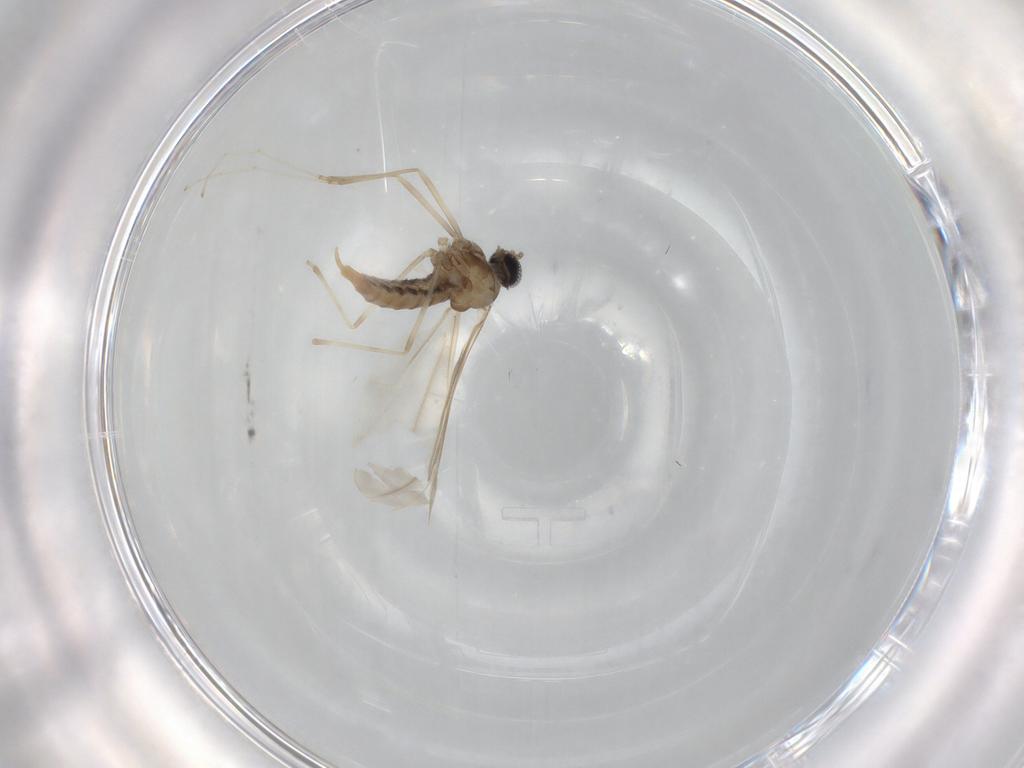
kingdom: Animalia
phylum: Arthropoda
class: Insecta
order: Diptera
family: Cecidomyiidae
